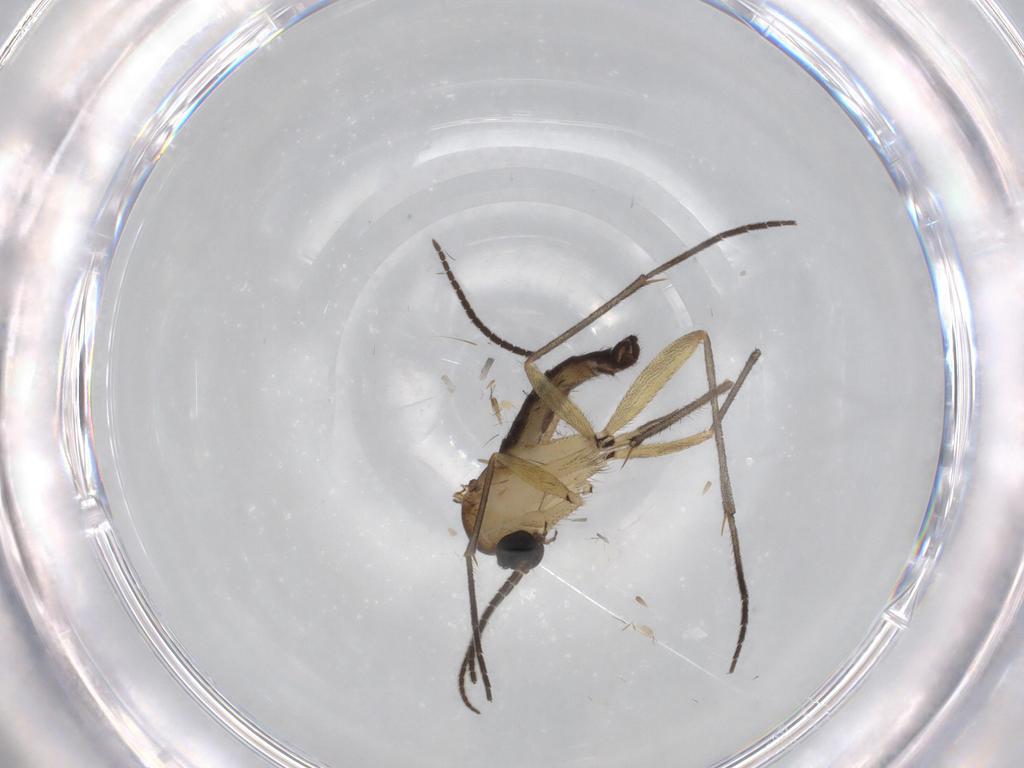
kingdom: Animalia
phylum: Arthropoda
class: Insecta
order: Diptera
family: Sciaridae
